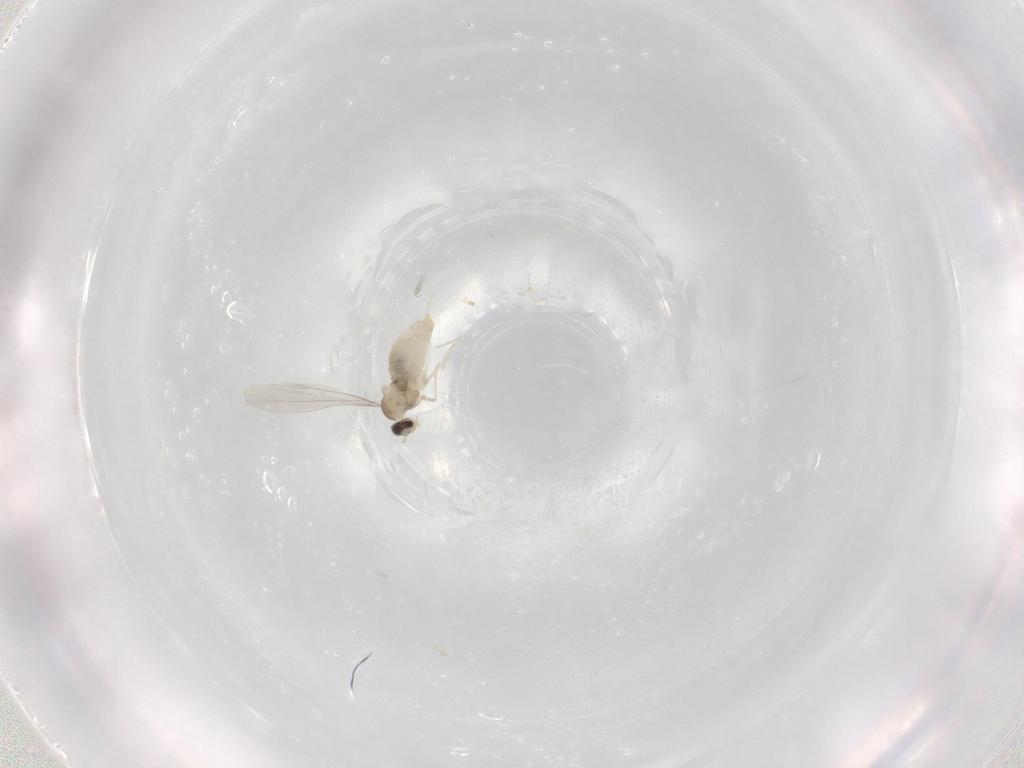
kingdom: Animalia
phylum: Arthropoda
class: Insecta
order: Diptera
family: Cecidomyiidae
